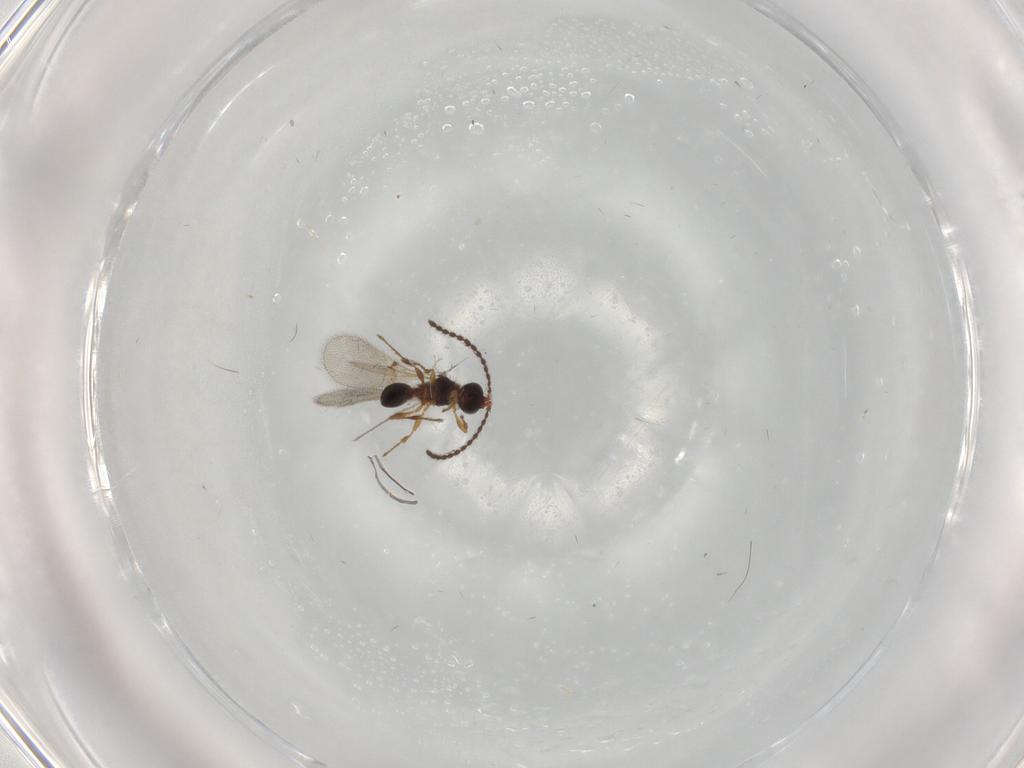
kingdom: Animalia
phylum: Arthropoda
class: Insecta
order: Hymenoptera
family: Diapriidae
